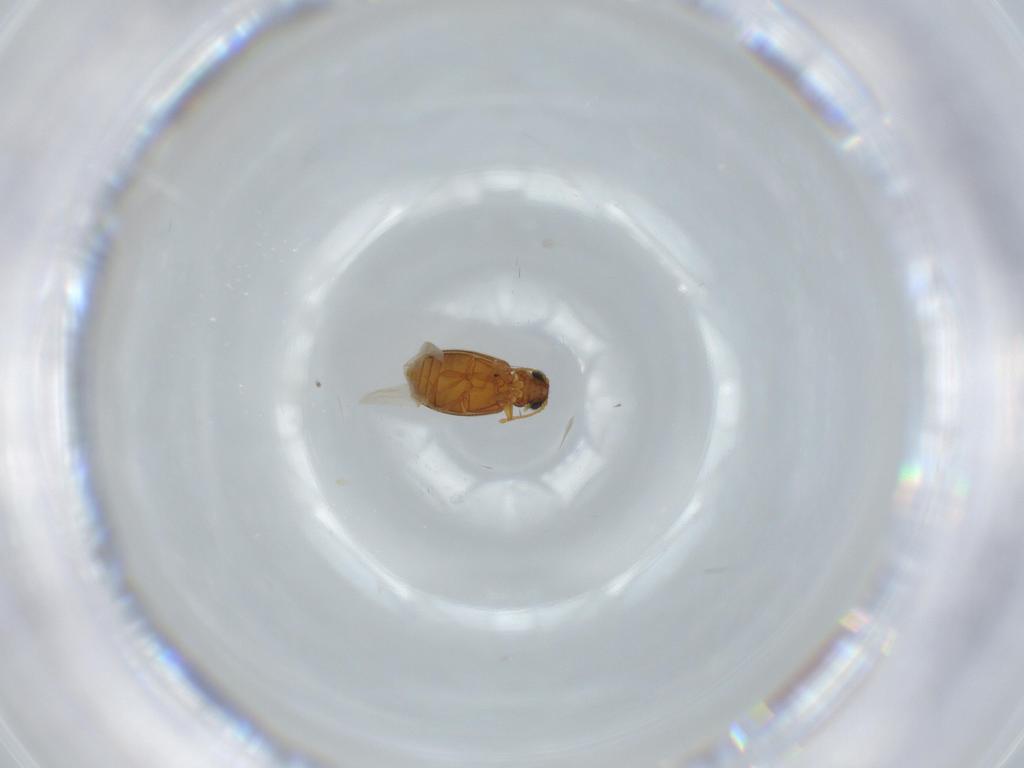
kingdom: Animalia
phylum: Arthropoda
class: Insecta
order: Coleoptera
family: Aderidae
